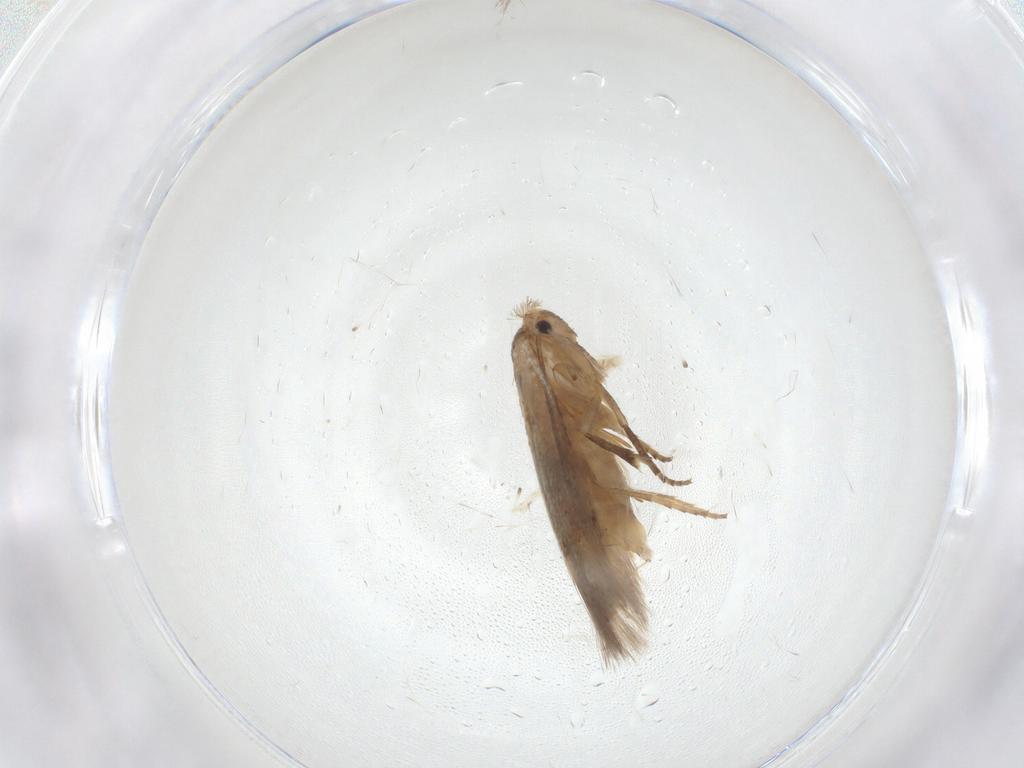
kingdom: Animalia
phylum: Arthropoda
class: Insecta
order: Lepidoptera
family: Bucculatricidae
